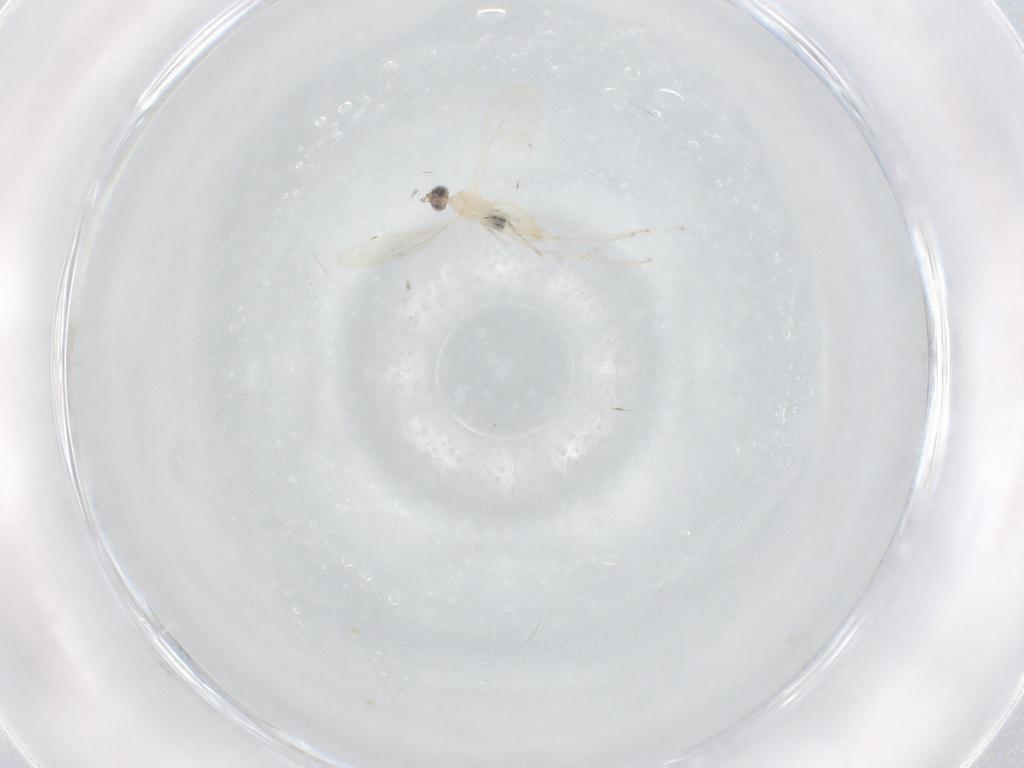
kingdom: Animalia
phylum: Arthropoda
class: Insecta
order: Diptera
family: Cecidomyiidae
